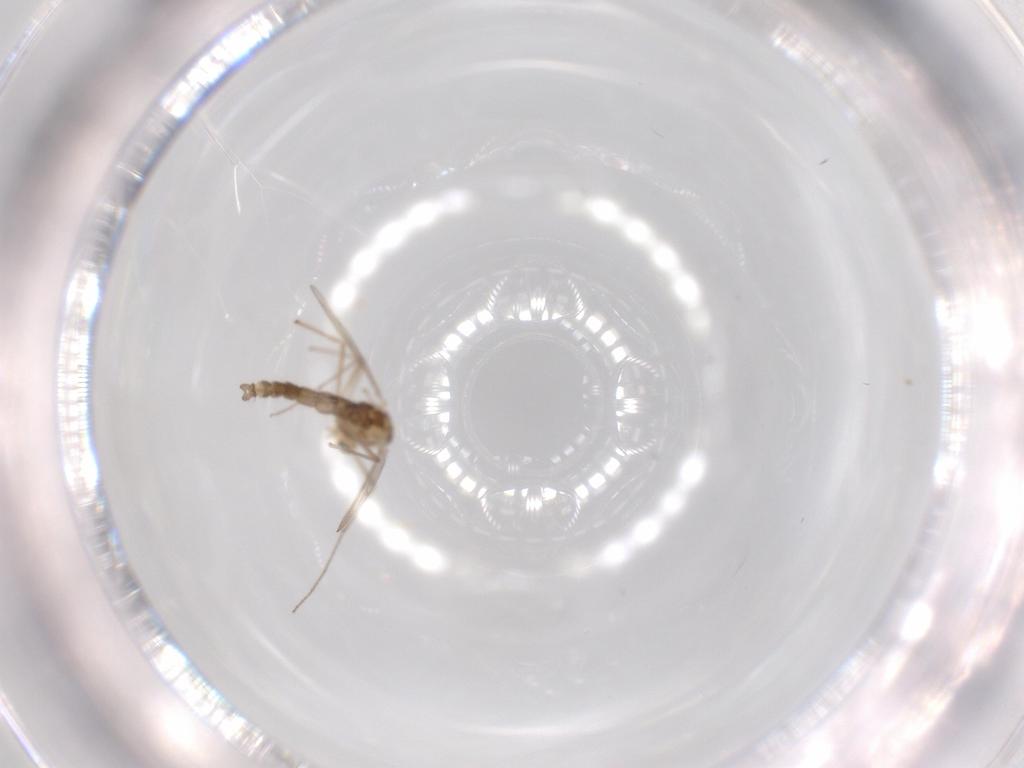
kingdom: Animalia
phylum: Arthropoda
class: Insecta
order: Diptera
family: Chironomidae
